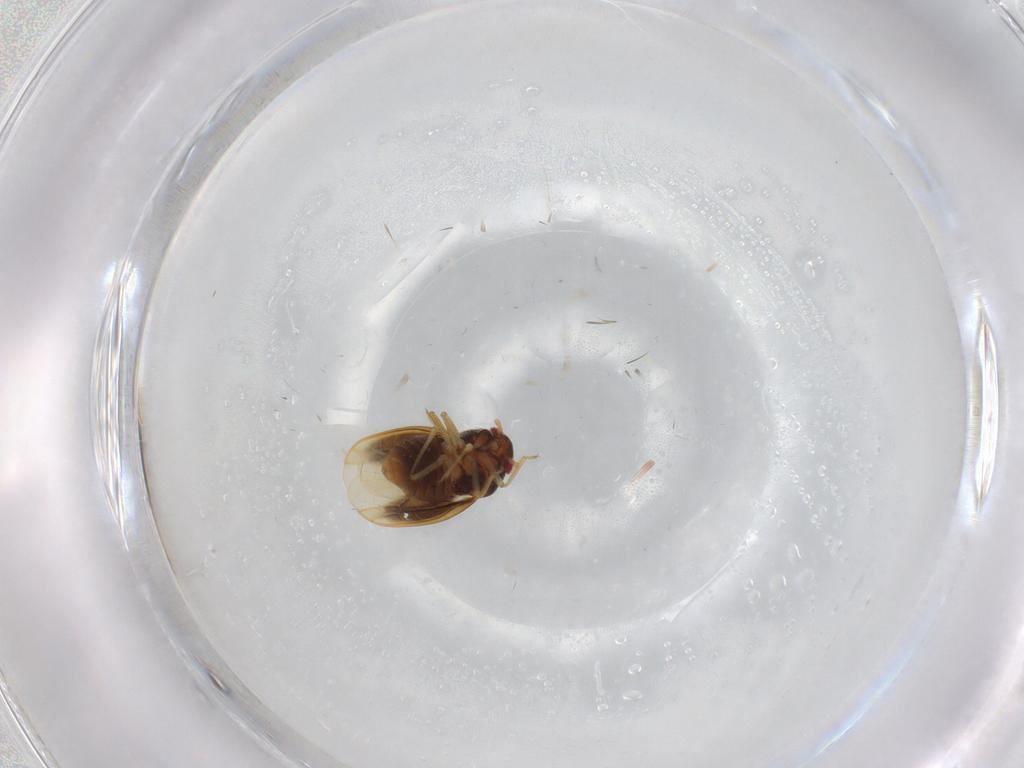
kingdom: Animalia
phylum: Arthropoda
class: Insecta
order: Hemiptera
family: Schizopteridae
